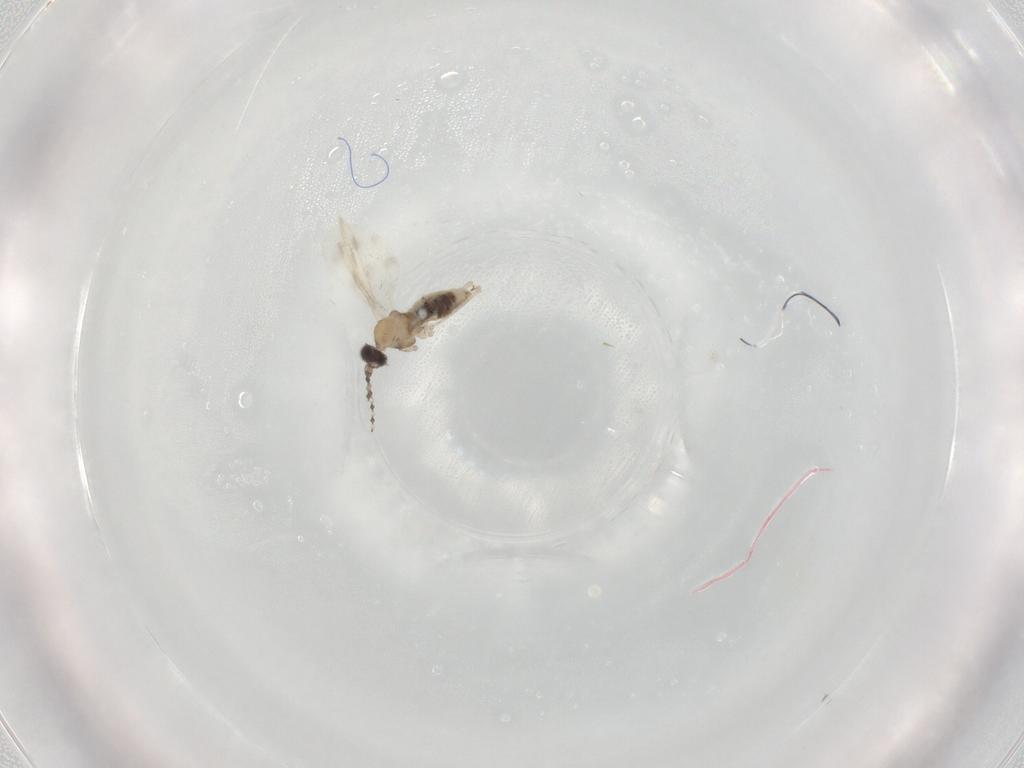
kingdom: Animalia
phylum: Arthropoda
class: Insecta
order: Diptera
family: Cecidomyiidae
